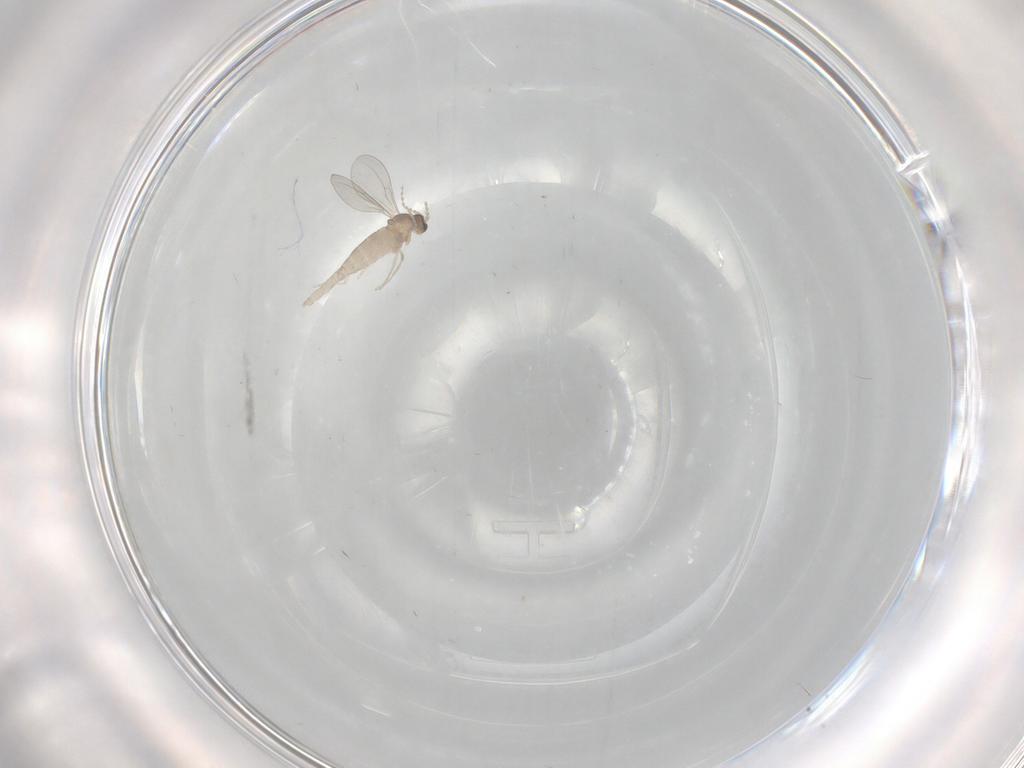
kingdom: Animalia
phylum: Arthropoda
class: Insecta
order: Diptera
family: Cecidomyiidae
